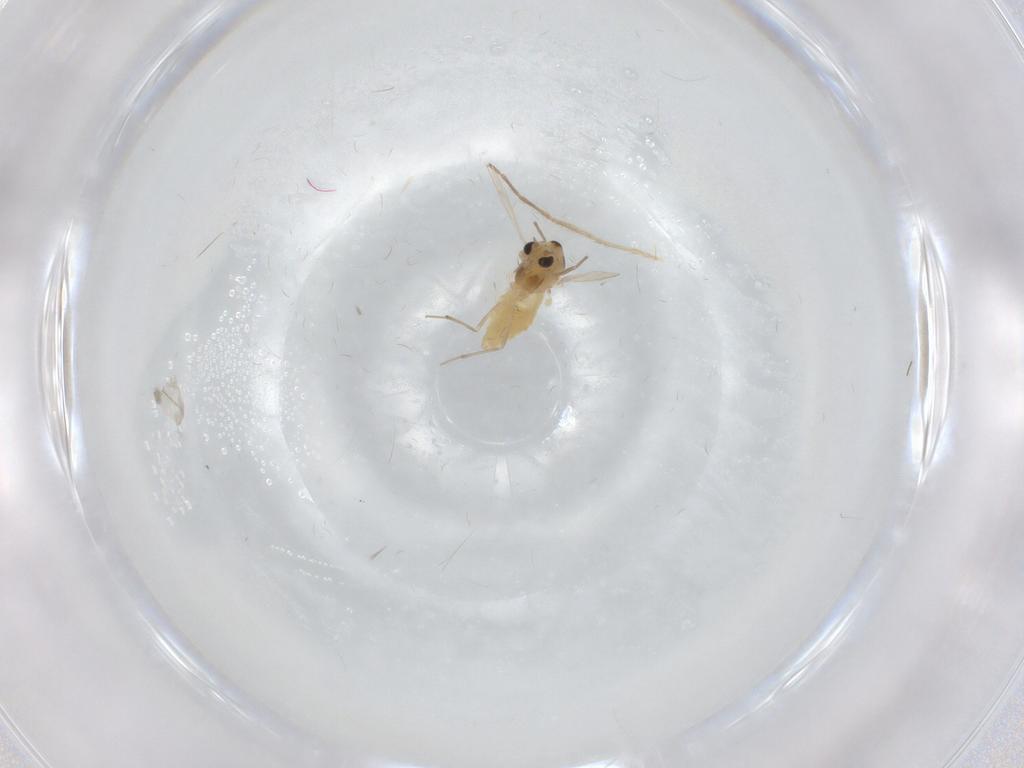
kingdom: Animalia
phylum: Arthropoda
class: Insecta
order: Diptera
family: Chironomidae
